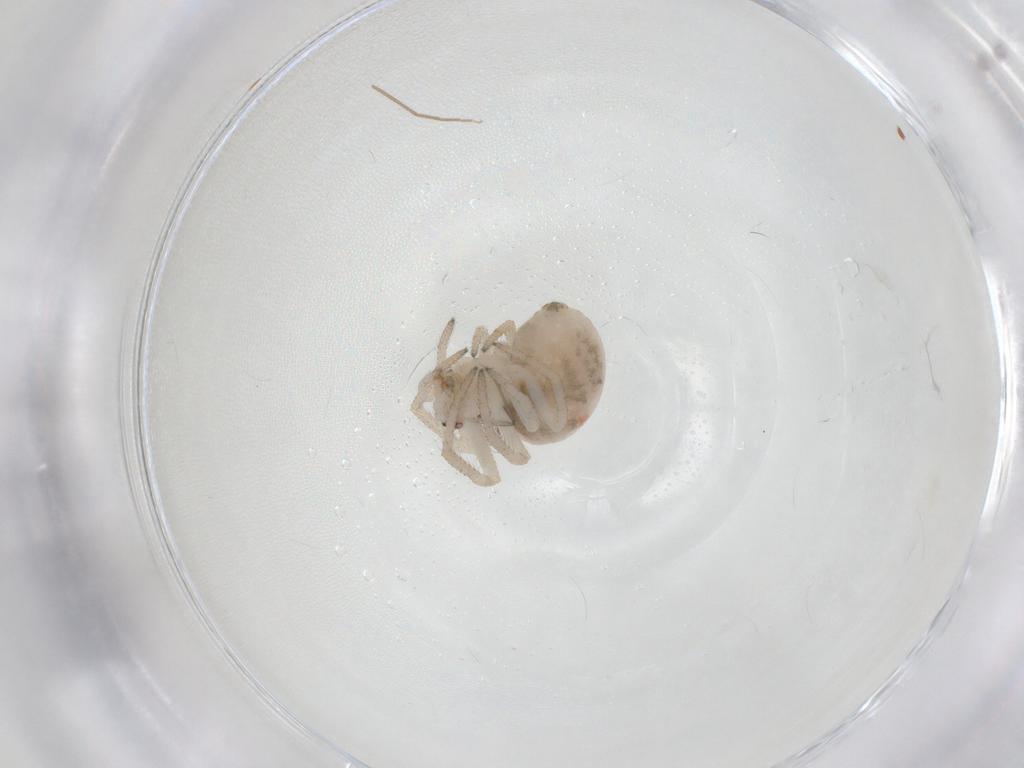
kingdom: Animalia
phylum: Arthropoda
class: Arachnida
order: Araneae
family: Theridiidae
